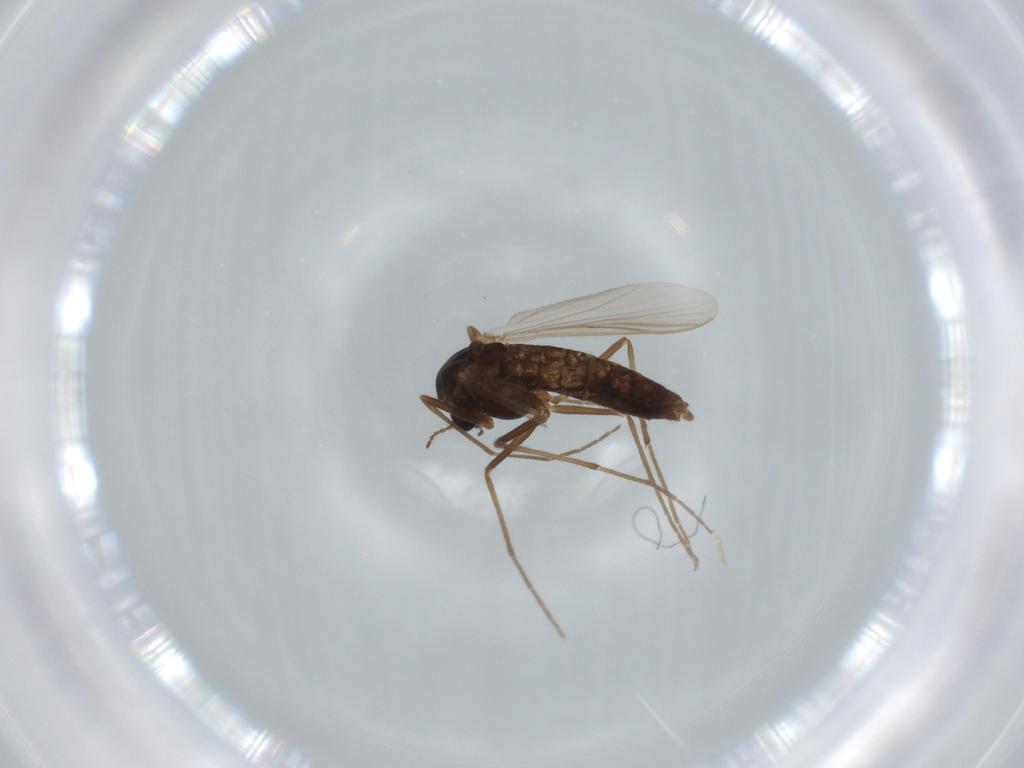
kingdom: Animalia
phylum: Arthropoda
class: Insecta
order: Diptera
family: Chironomidae
